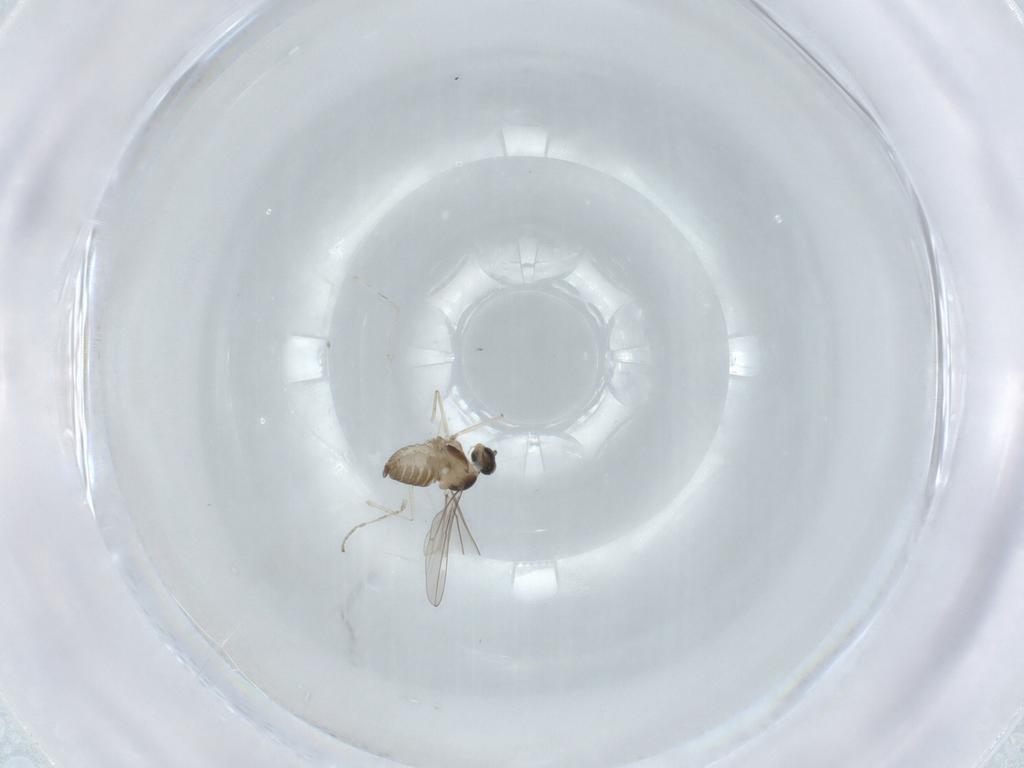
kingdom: Animalia
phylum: Arthropoda
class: Insecta
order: Diptera
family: Cecidomyiidae
